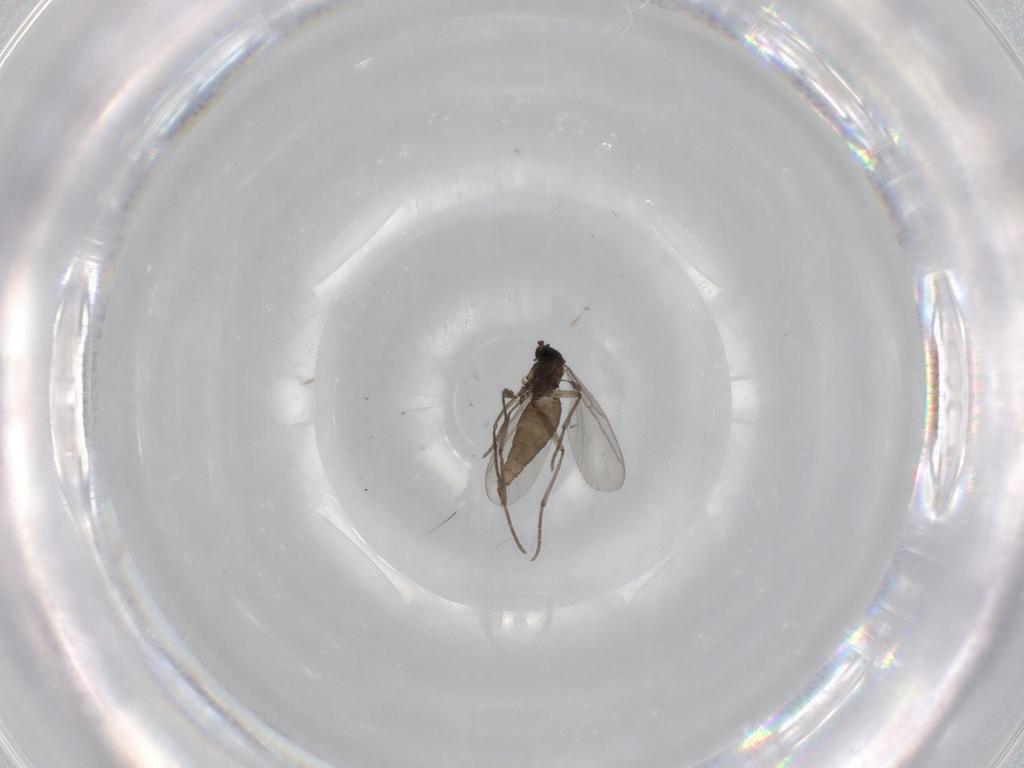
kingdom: Animalia
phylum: Arthropoda
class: Insecta
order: Diptera
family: Sciaridae
